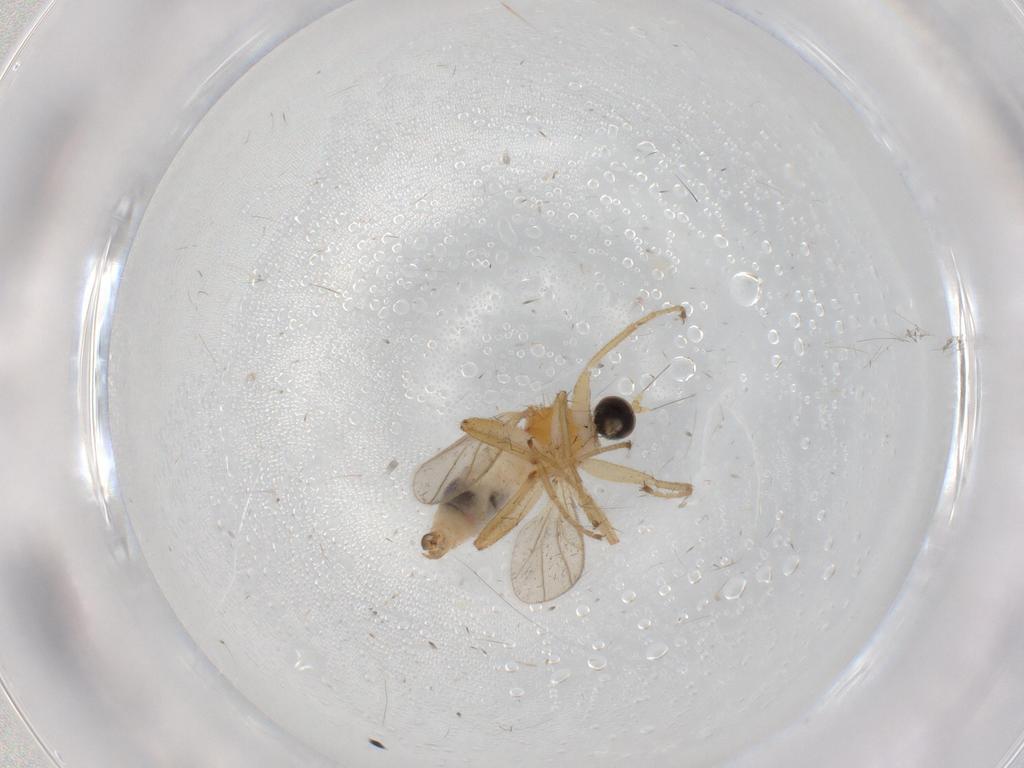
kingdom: Animalia
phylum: Arthropoda
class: Insecta
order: Diptera
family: Hybotidae
